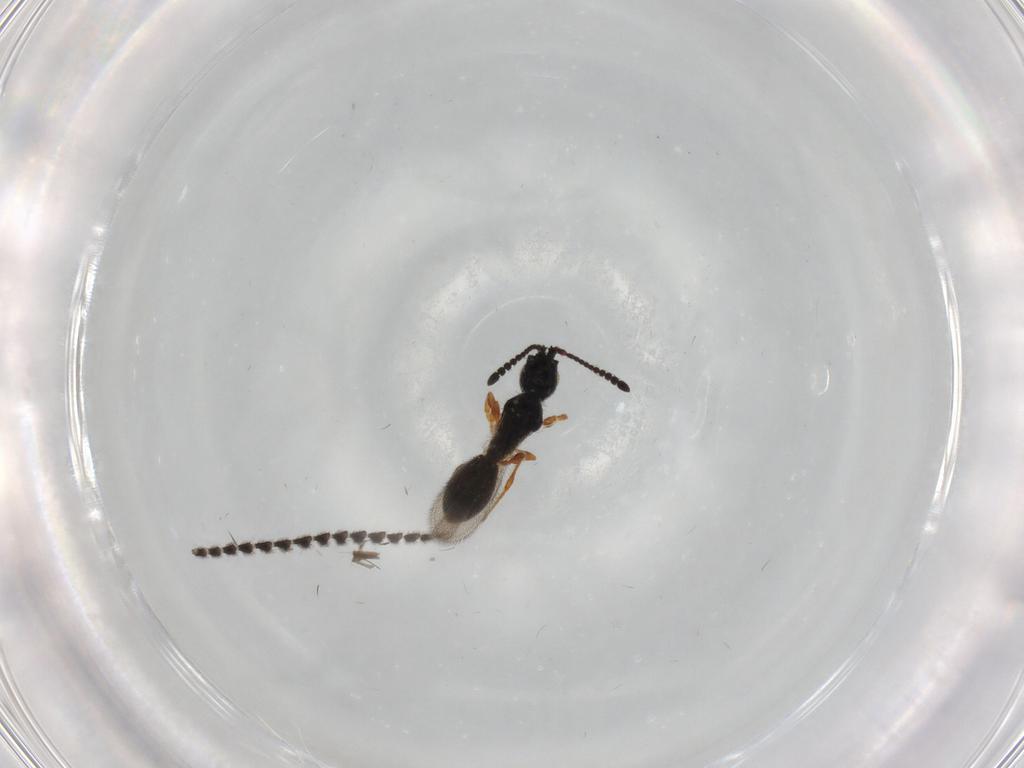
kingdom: Animalia
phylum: Arthropoda
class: Insecta
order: Hymenoptera
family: Diapriidae
